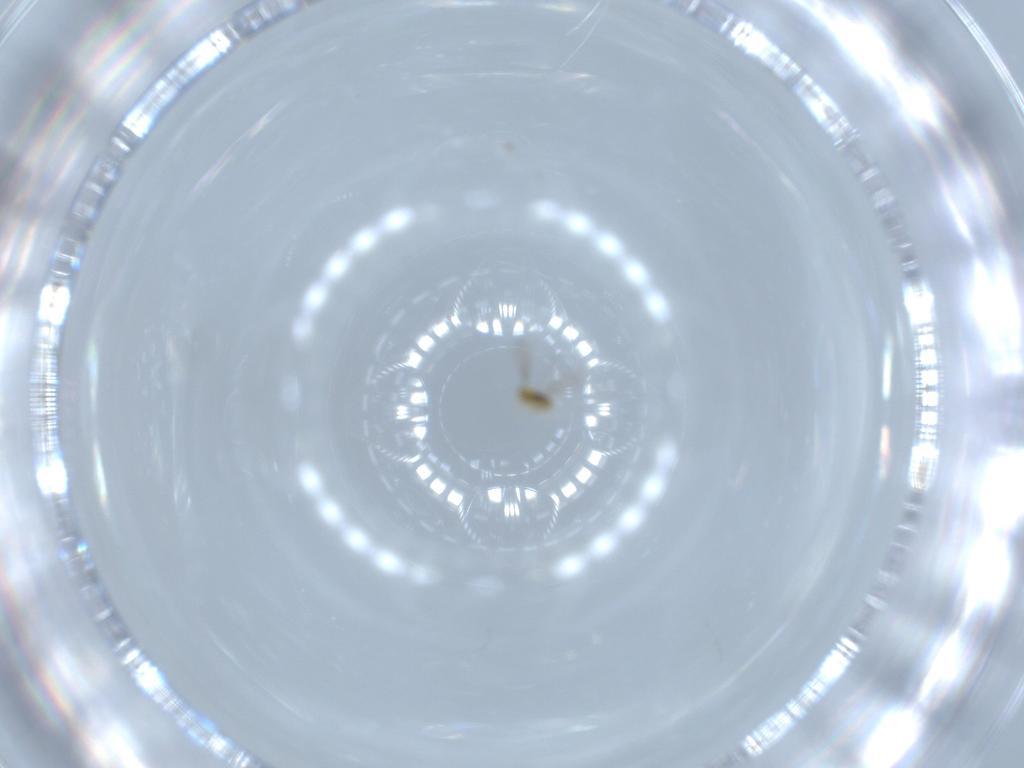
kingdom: Animalia
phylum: Arthropoda
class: Insecta
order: Hymenoptera
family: Aphelinidae
